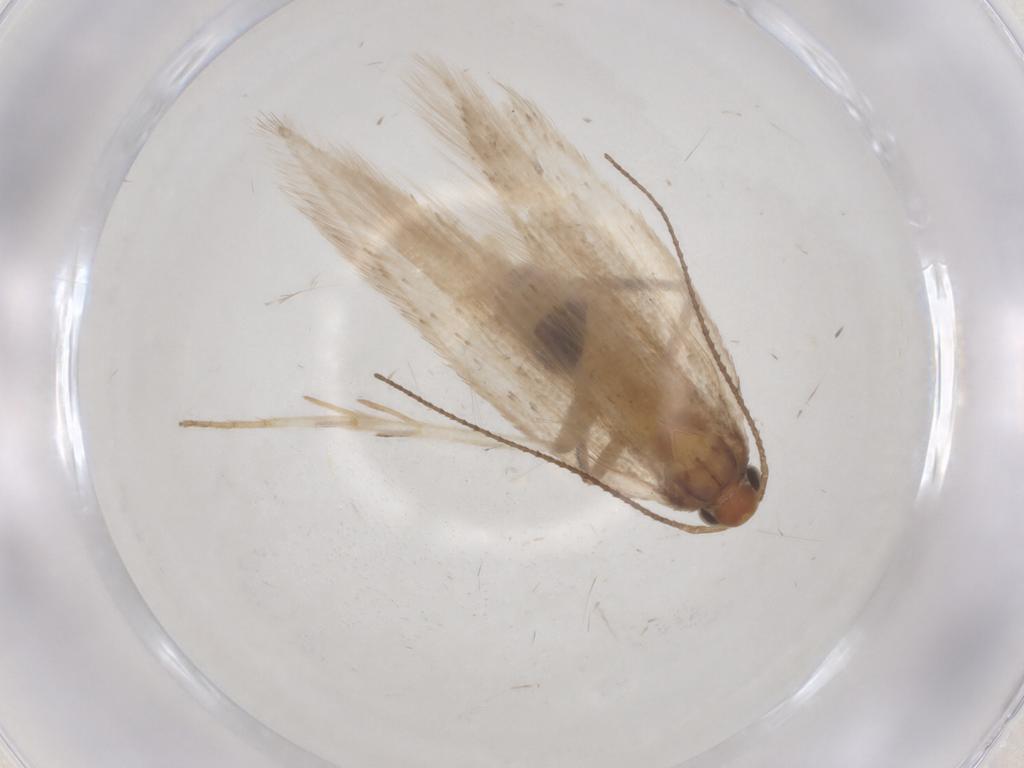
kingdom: Animalia
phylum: Arthropoda
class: Insecta
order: Lepidoptera
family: Gelechiidae
